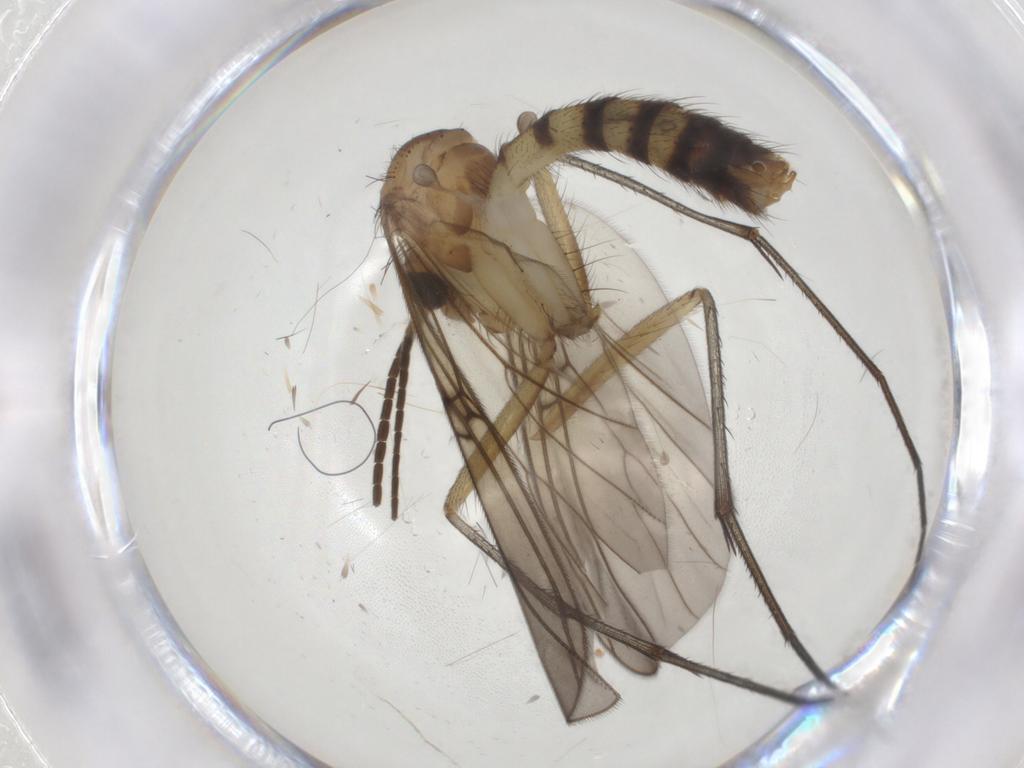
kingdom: Animalia
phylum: Arthropoda
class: Insecta
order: Diptera
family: Mycetophilidae
